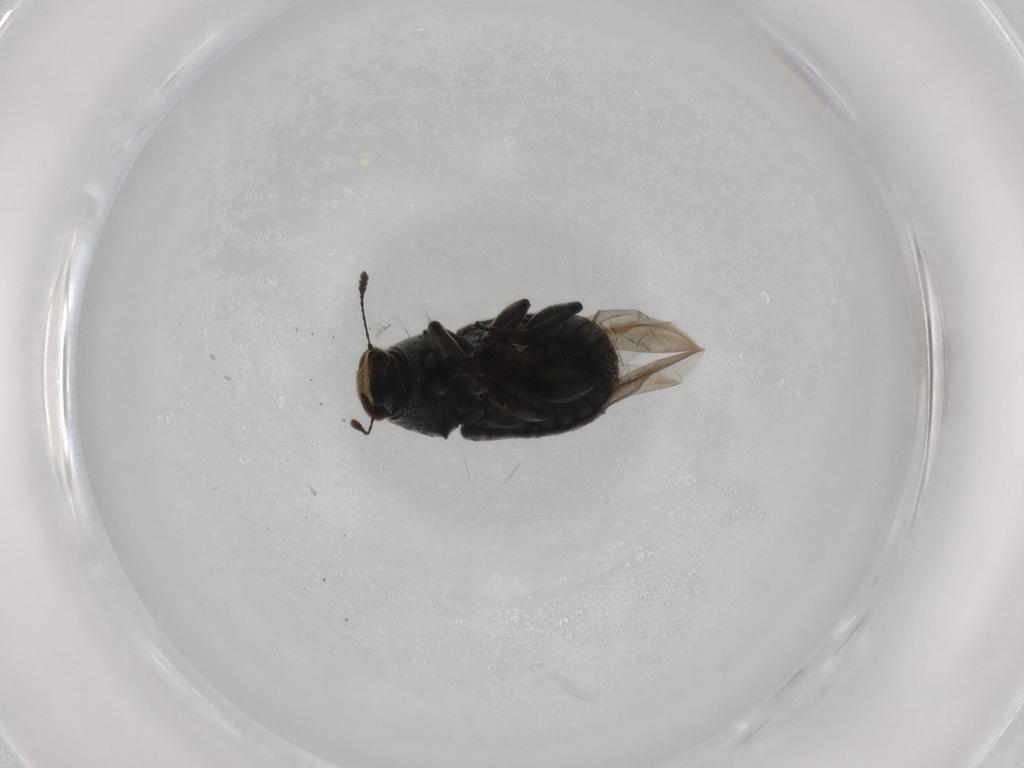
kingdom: Animalia
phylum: Arthropoda
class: Insecta
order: Coleoptera
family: Anthribidae
